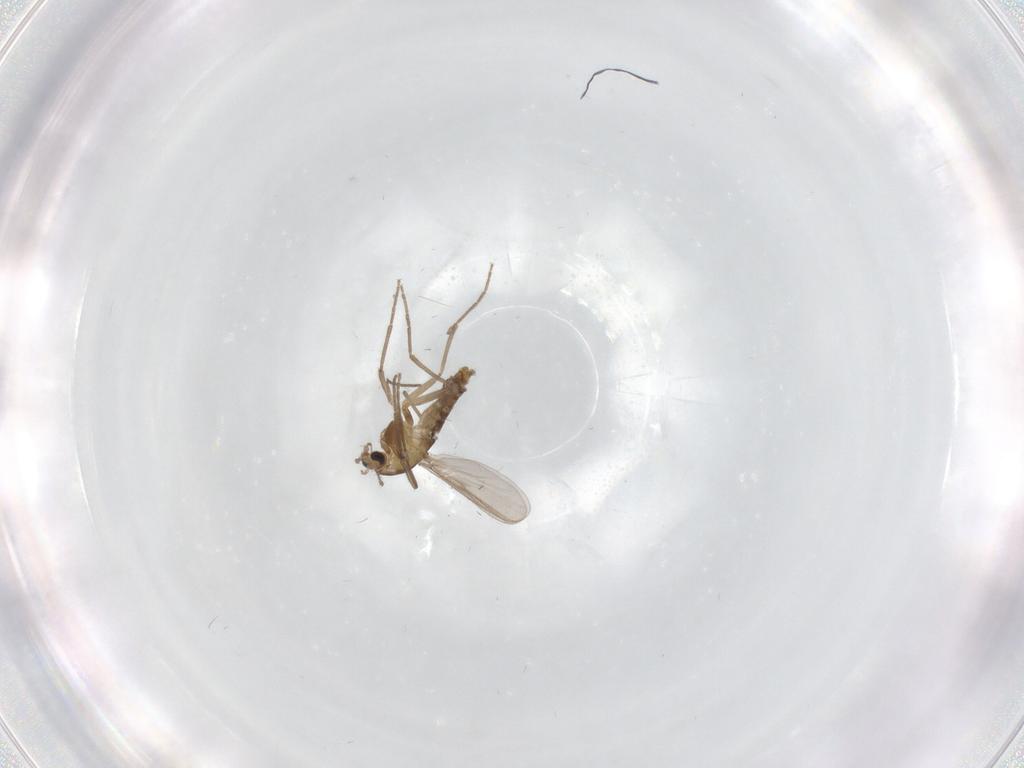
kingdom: Animalia
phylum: Arthropoda
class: Insecta
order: Diptera
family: Chironomidae
